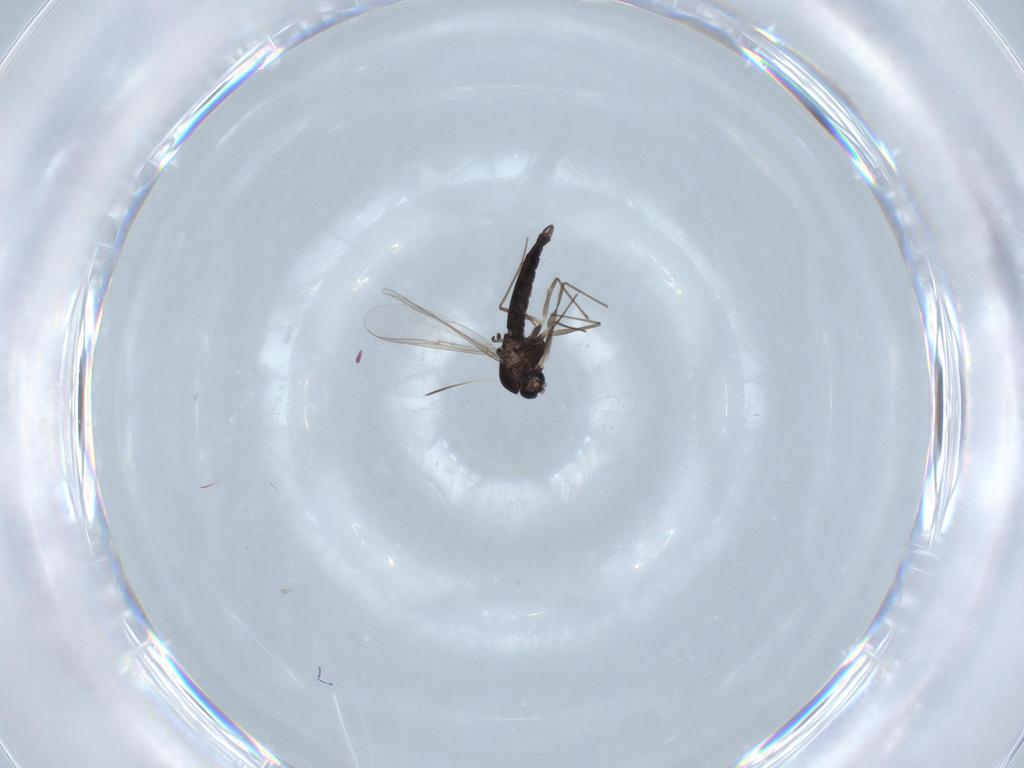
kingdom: Animalia
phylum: Arthropoda
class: Insecta
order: Diptera
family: Chironomidae
